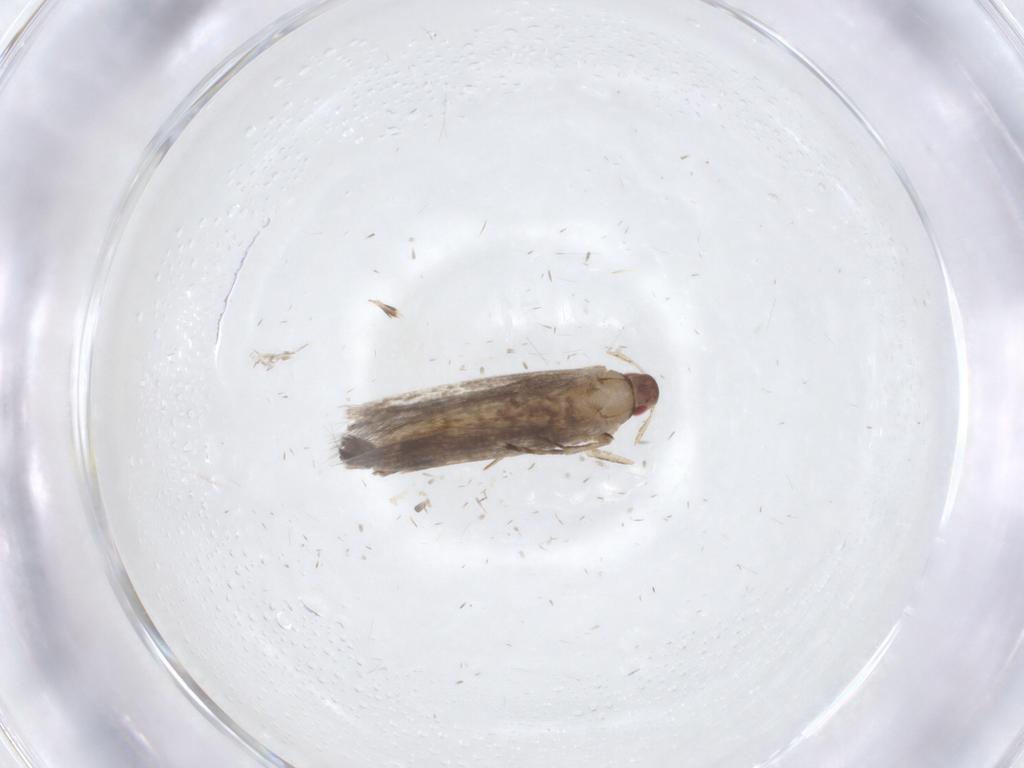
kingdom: Animalia
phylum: Arthropoda
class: Insecta
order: Lepidoptera
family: Cosmopterigidae
